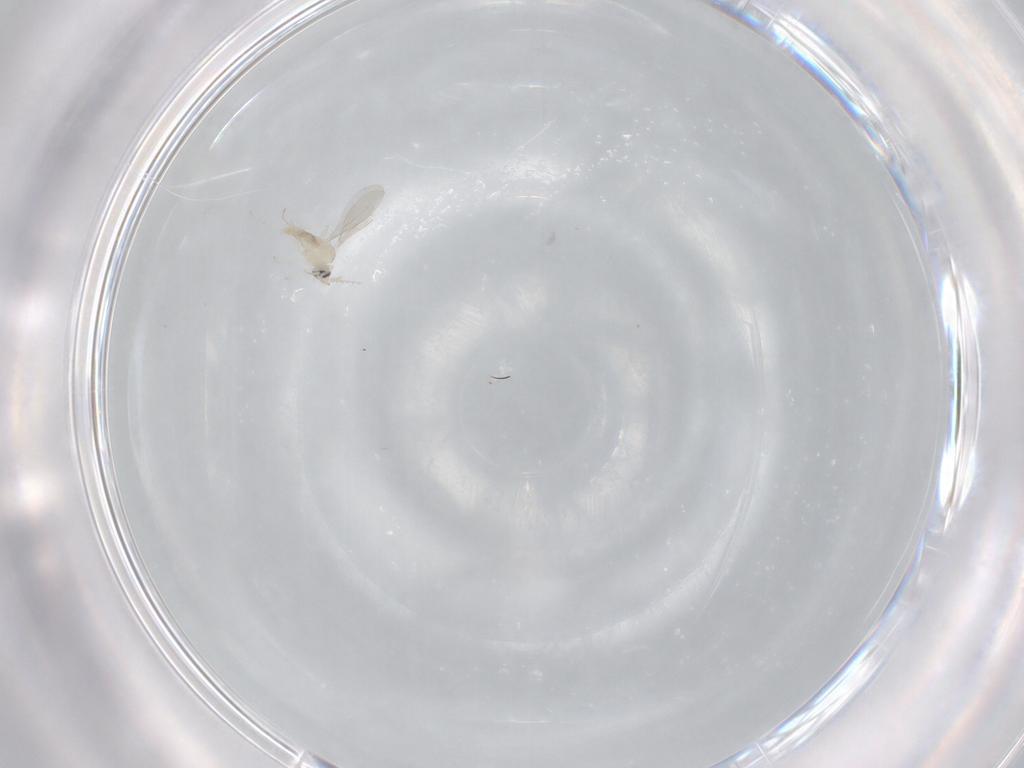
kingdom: Animalia
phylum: Arthropoda
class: Insecta
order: Diptera
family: Cecidomyiidae
